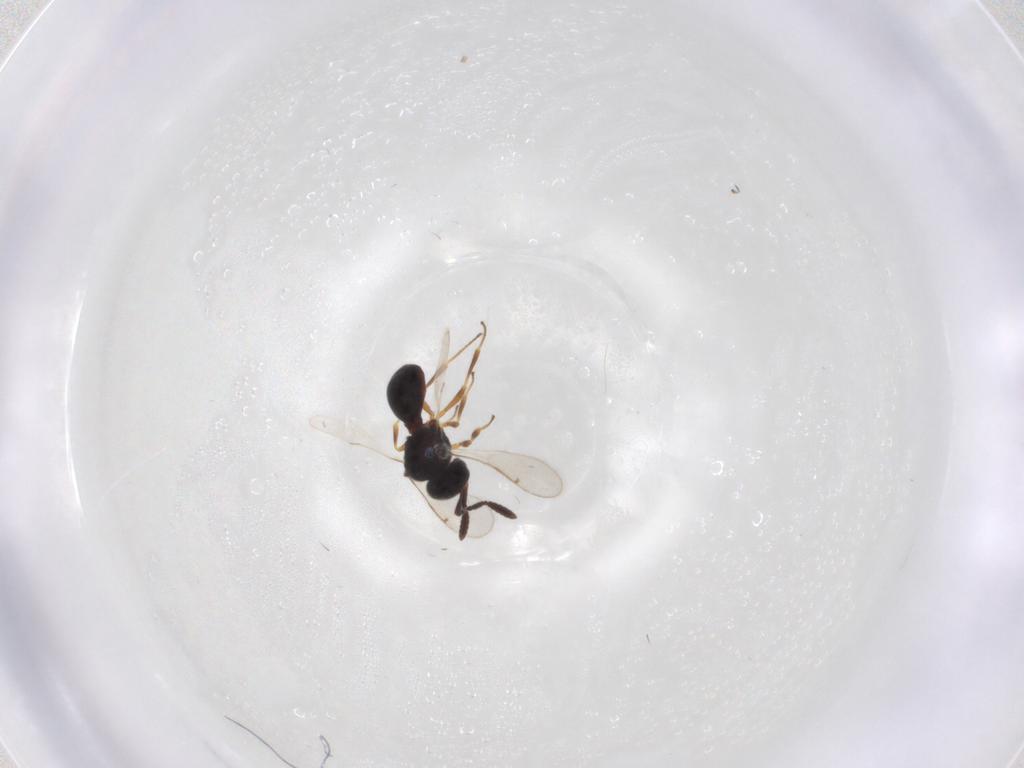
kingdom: Animalia
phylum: Arthropoda
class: Insecta
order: Hymenoptera
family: Scelionidae
